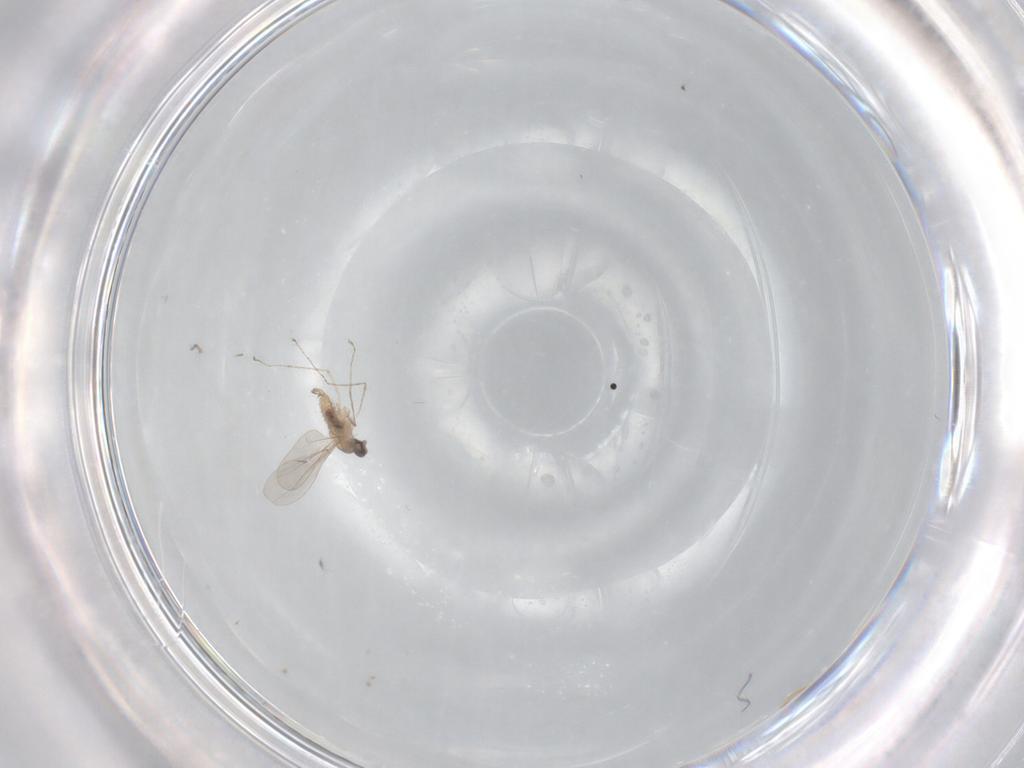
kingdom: Animalia
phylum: Arthropoda
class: Insecta
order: Diptera
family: Cecidomyiidae
